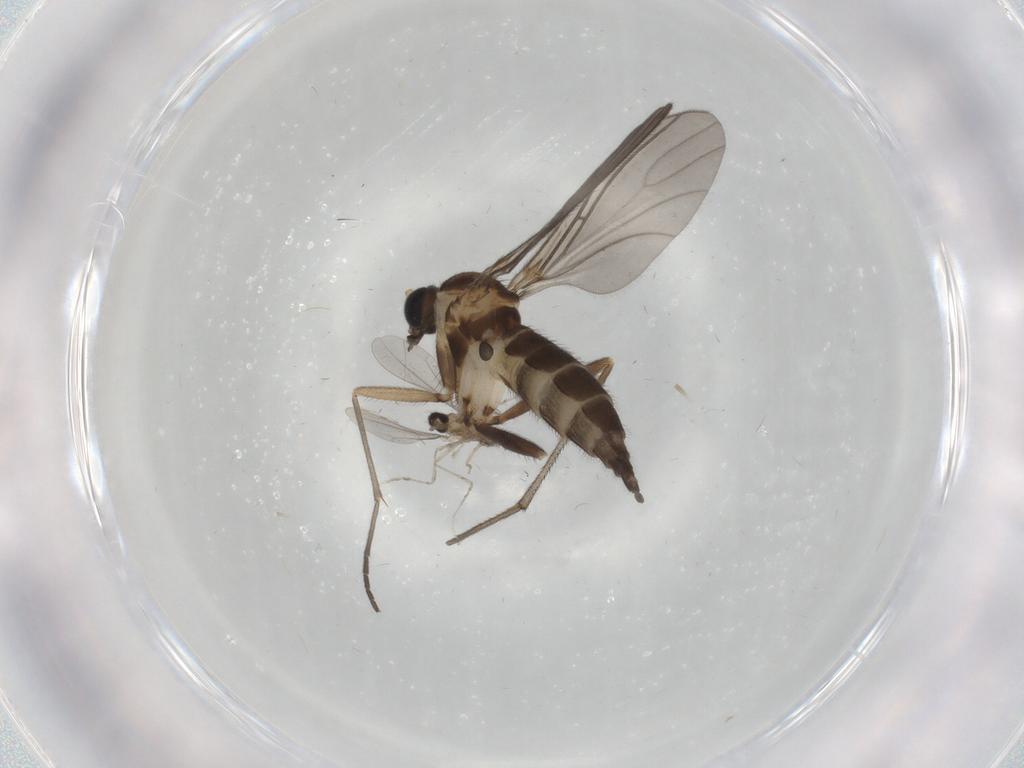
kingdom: Animalia
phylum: Arthropoda
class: Insecta
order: Diptera
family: Sciaridae
